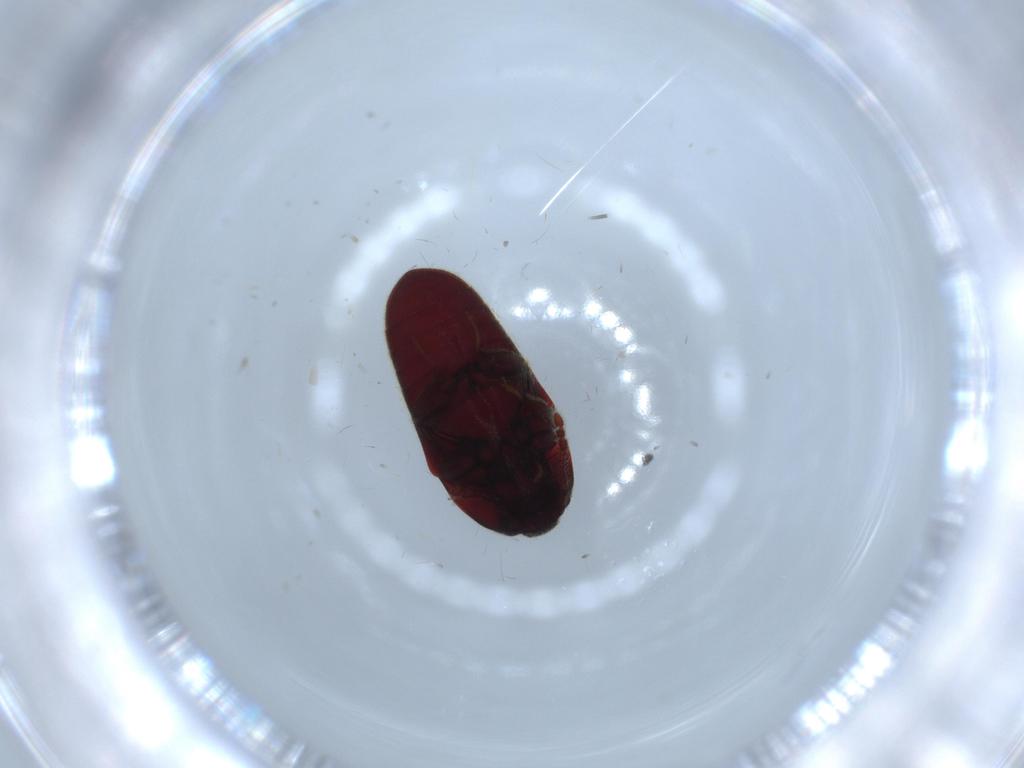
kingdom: Animalia
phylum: Arthropoda
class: Insecta
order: Coleoptera
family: Throscidae
